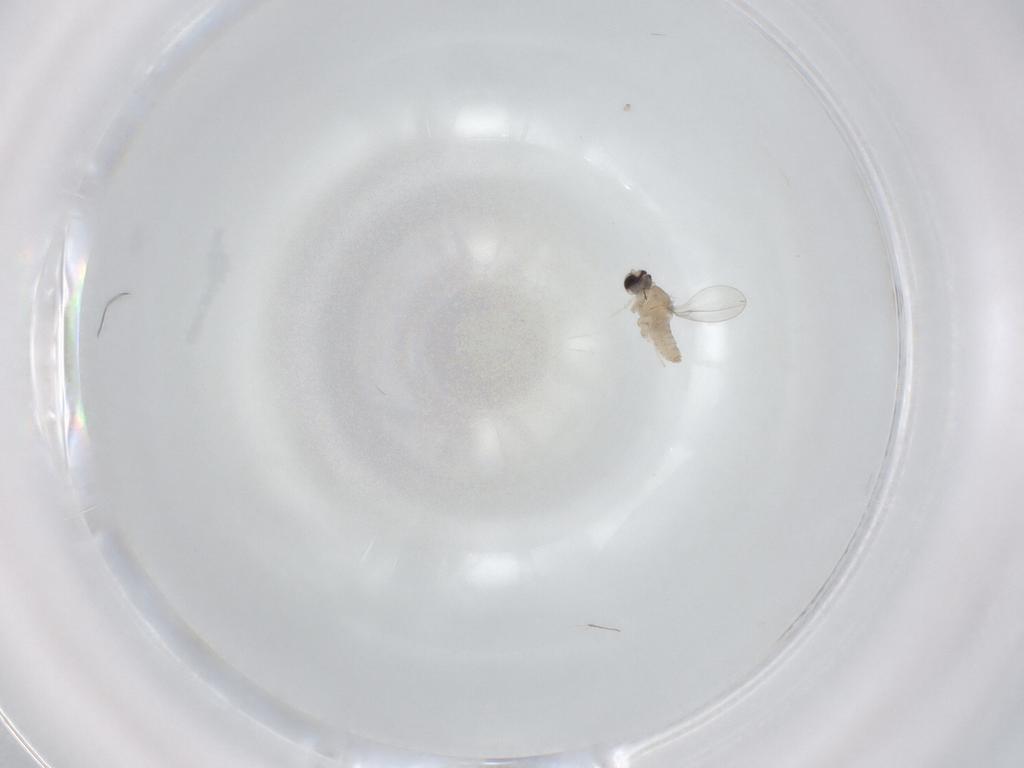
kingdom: Animalia
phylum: Arthropoda
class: Insecta
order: Diptera
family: Cecidomyiidae
